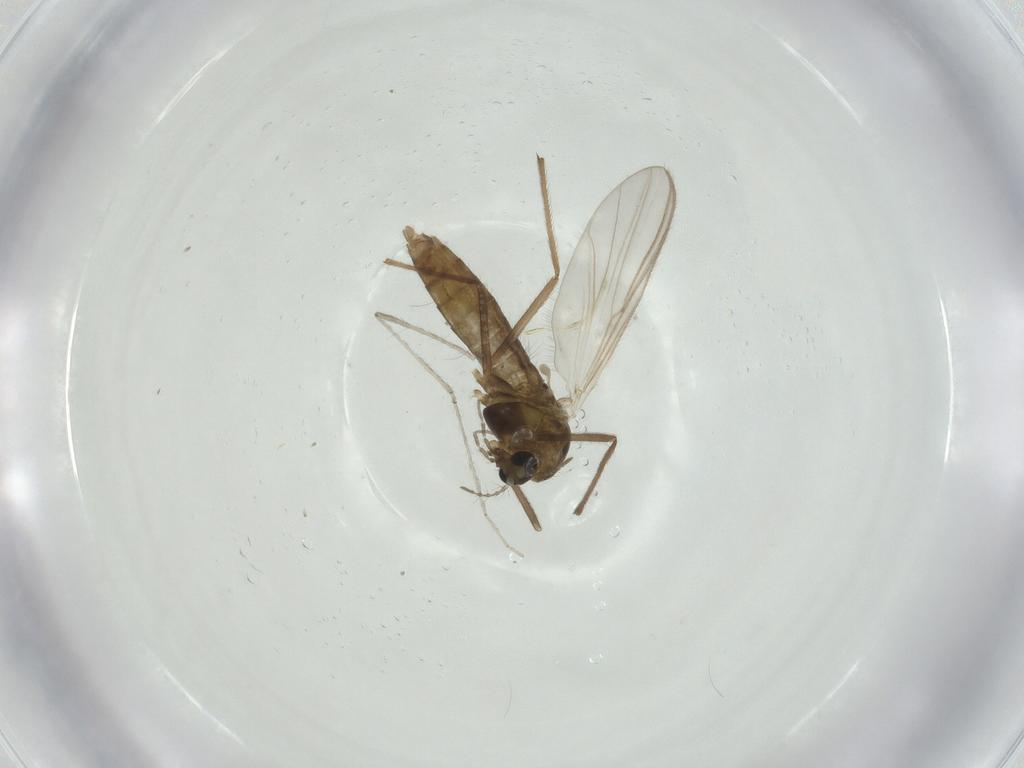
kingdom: Animalia
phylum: Arthropoda
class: Insecta
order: Diptera
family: Chironomidae
